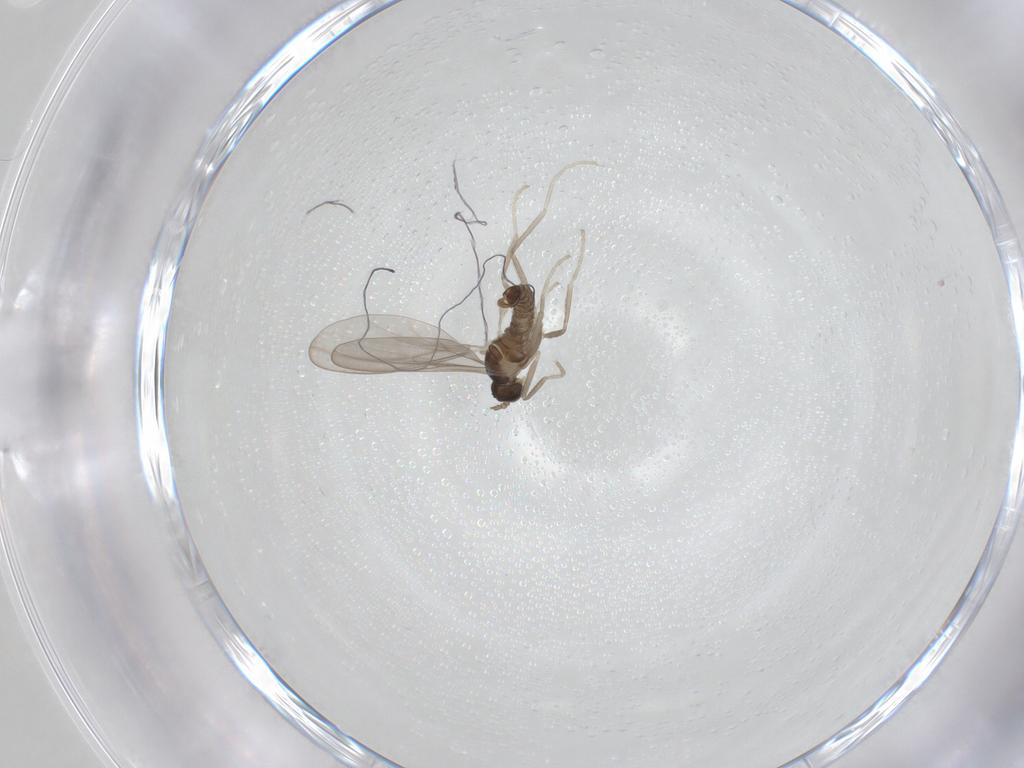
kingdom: Animalia
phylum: Arthropoda
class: Insecta
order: Diptera
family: Cecidomyiidae
